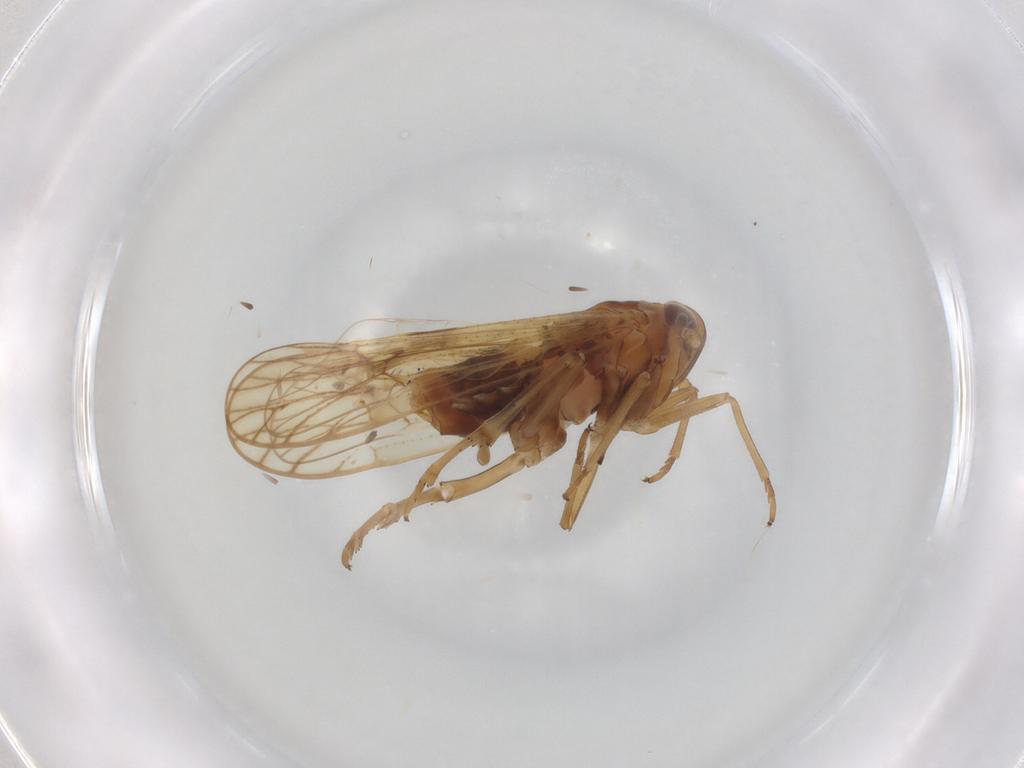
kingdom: Animalia
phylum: Arthropoda
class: Insecta
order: Hemiptera
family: Delphacidae
